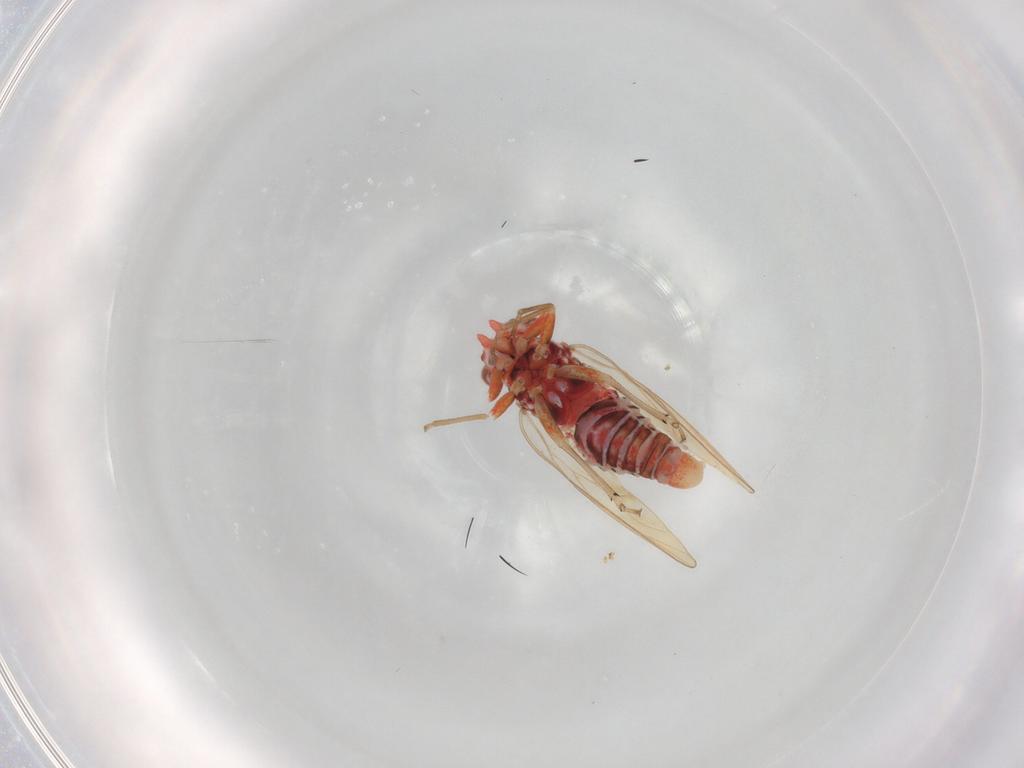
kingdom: Animalia
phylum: Arthropoda
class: Insecta
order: Hemiptera
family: Psyllidae
